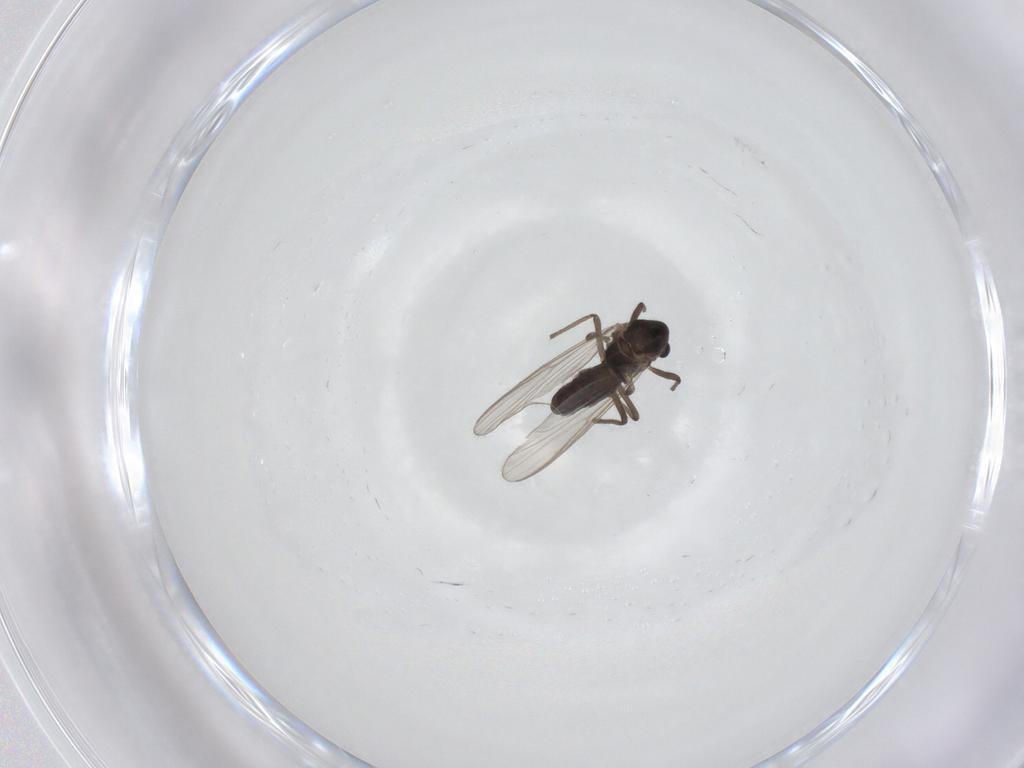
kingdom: Animalia
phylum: Arthropoda
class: Insecta
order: Diptera
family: Chironomidae
